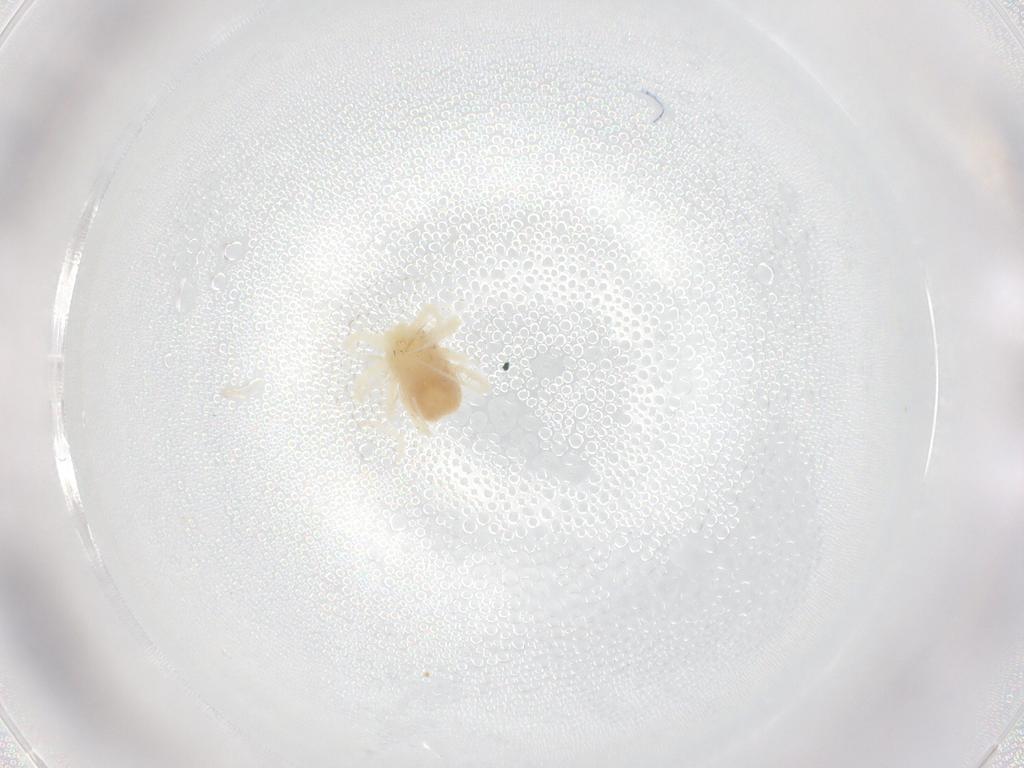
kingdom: Animalia
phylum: Arthropoda
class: Arachnida
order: Trombidiformes
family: Erythraeidae
